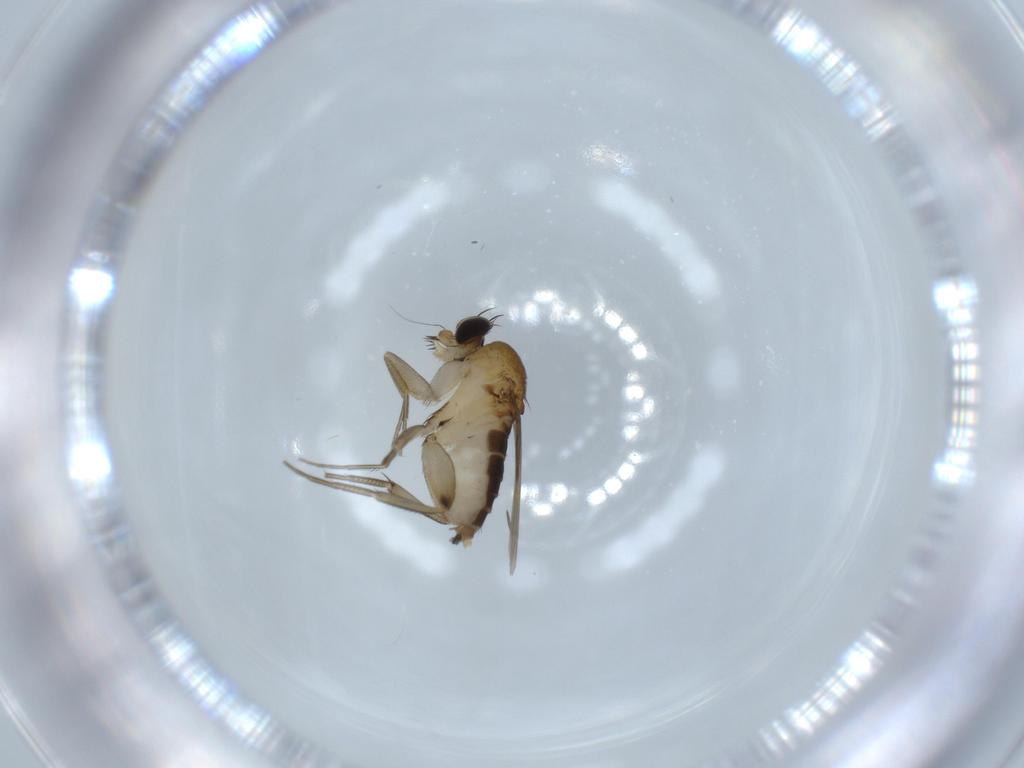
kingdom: Animalia
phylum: Arthropoda
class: Insecta
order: Diptera
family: Phoridae
